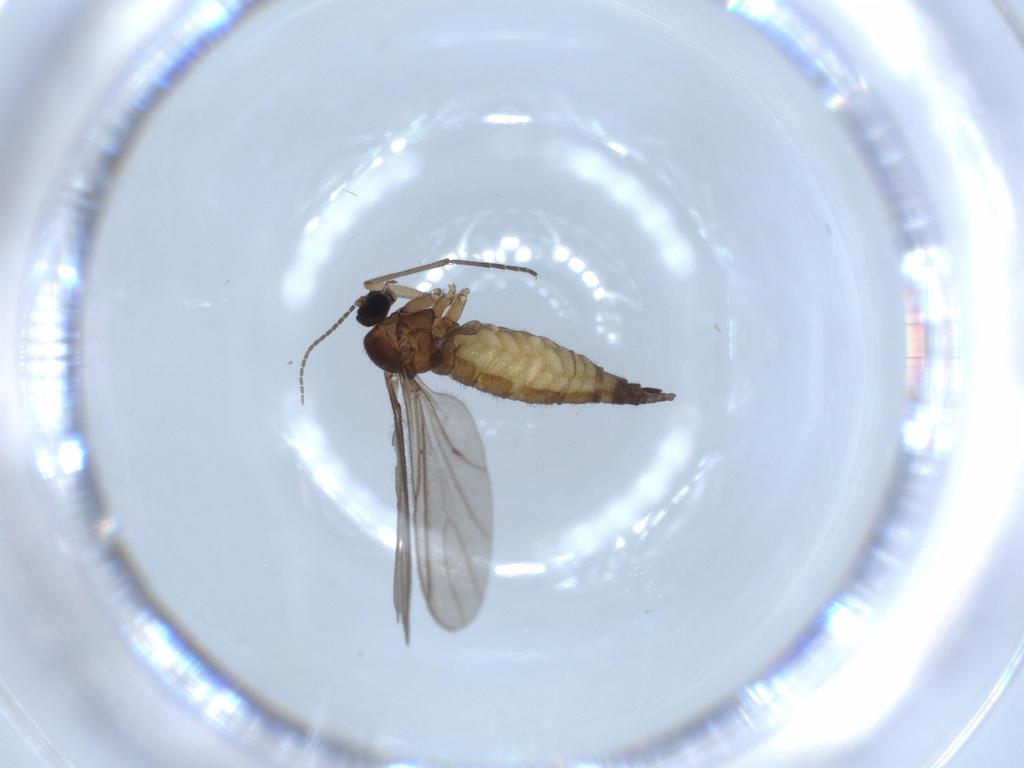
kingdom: Animalia
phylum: Arthropoda
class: Insecta
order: Diptera
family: Sciaridae
